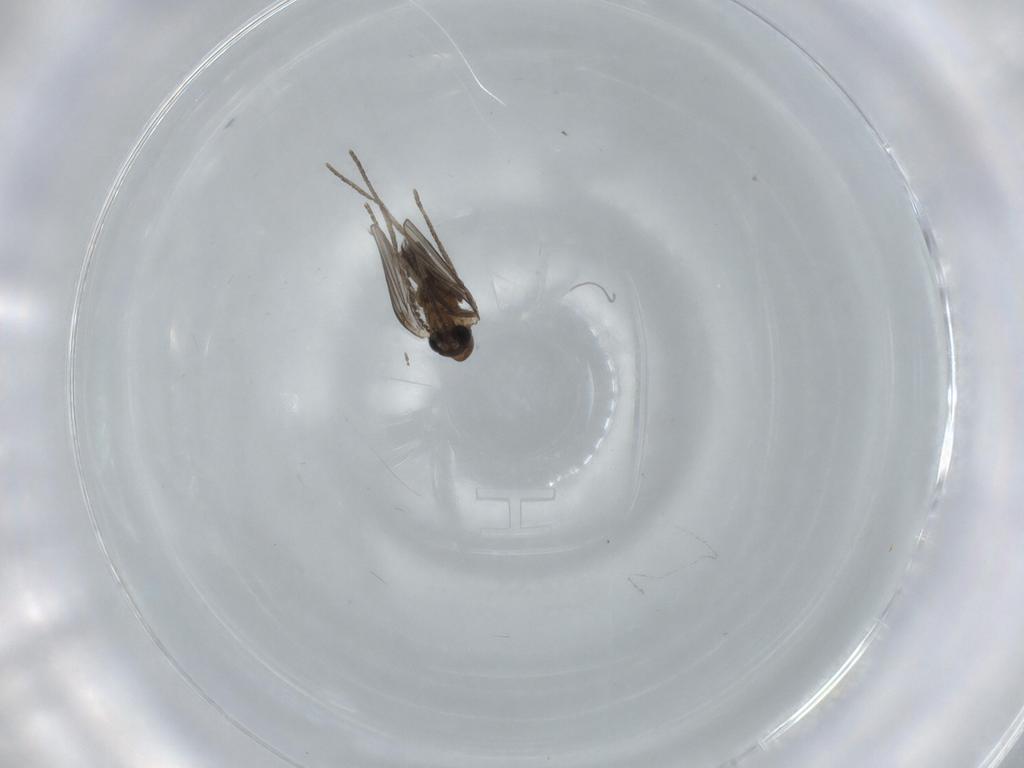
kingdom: Animalia
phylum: Arthropoda
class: Insecta
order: Diptera
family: Psychodidae
